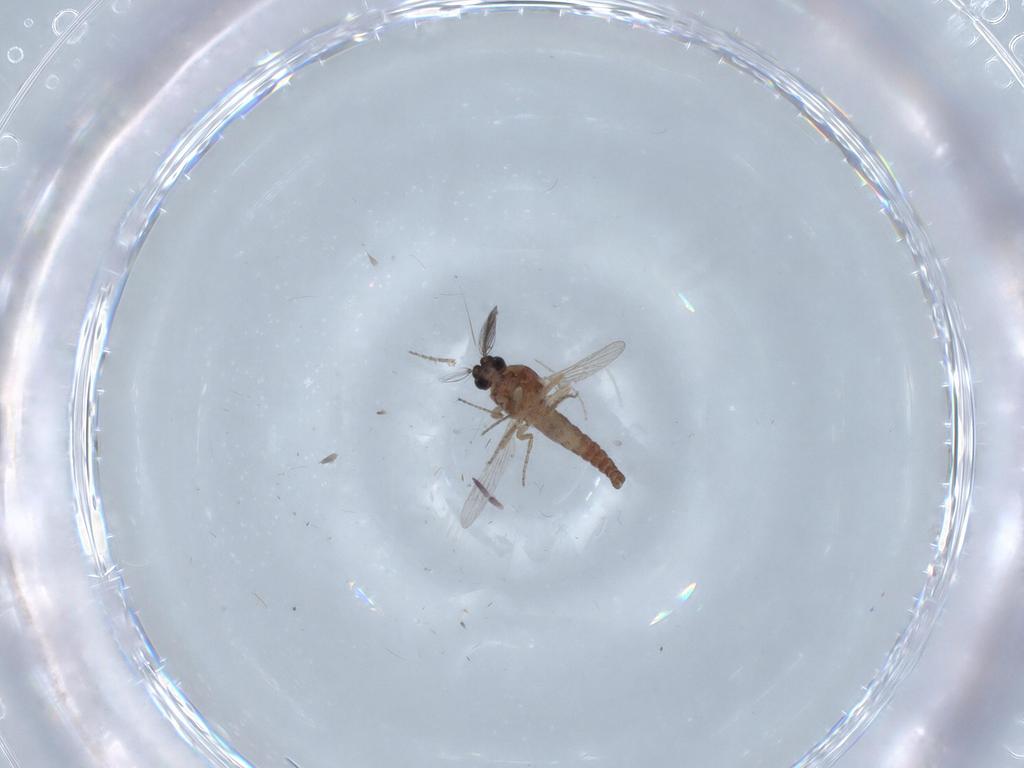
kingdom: Animalia
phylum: Arthropoda
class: Insecta
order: Diptera
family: Ceratopogonidae
